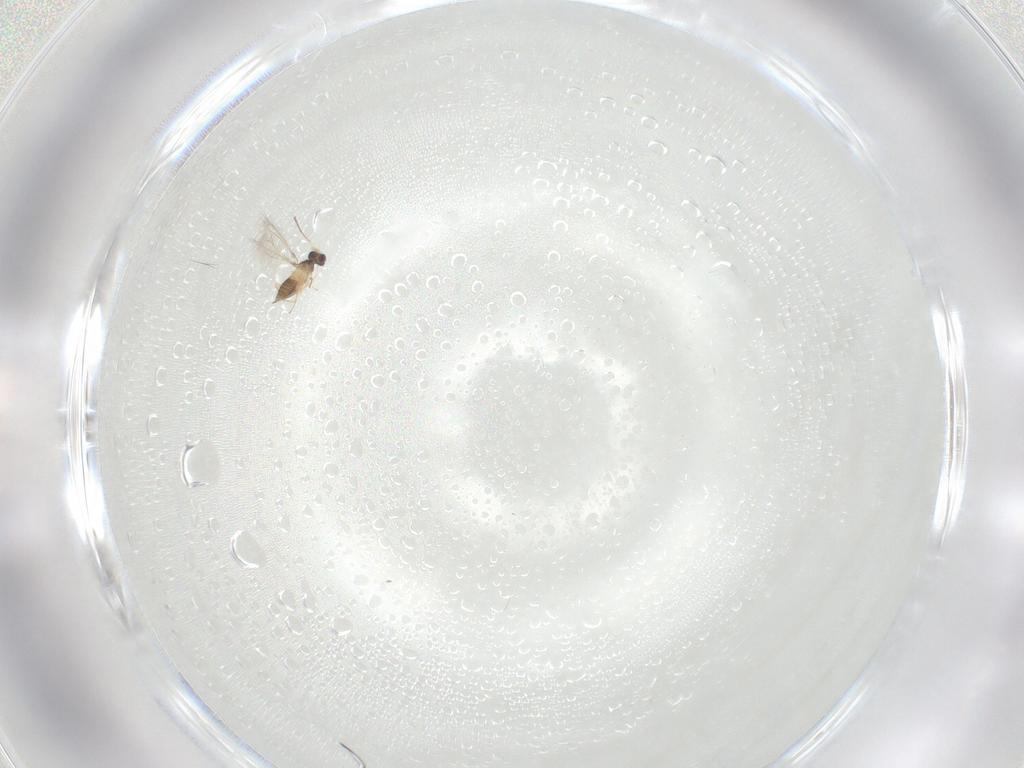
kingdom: Animalia
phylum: Arthropoda
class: Insecta
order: Hymenoptera
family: Mymaridae
